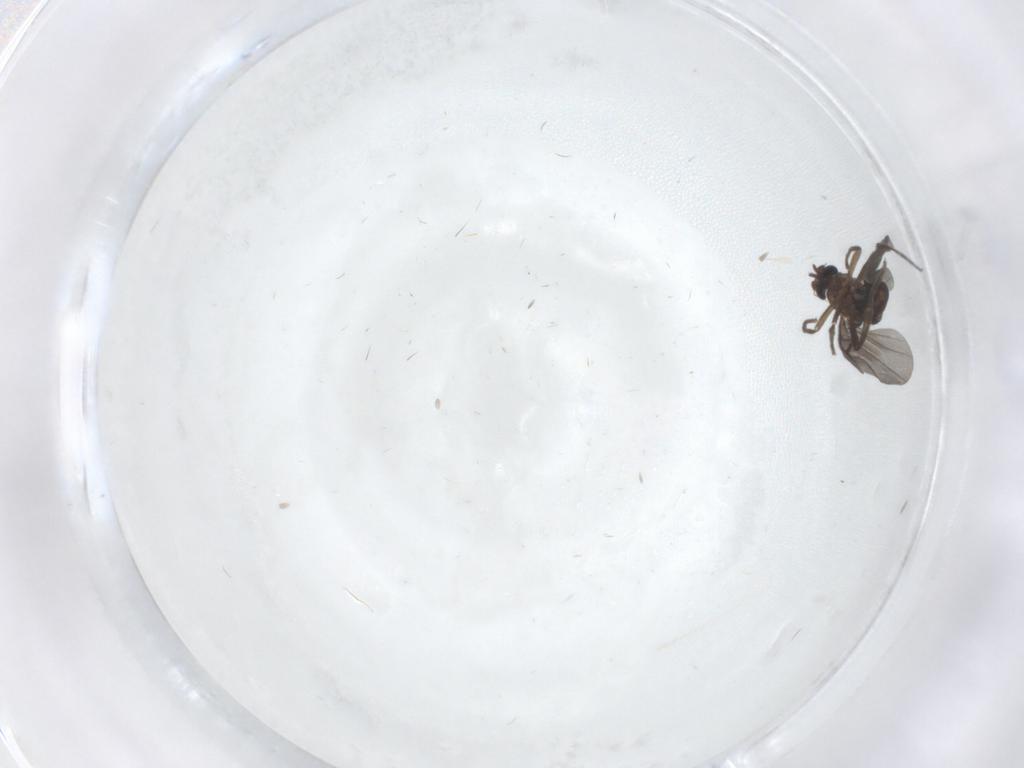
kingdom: Animalia
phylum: Arthropoda
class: Insecta
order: Diptera
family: Phoridae
